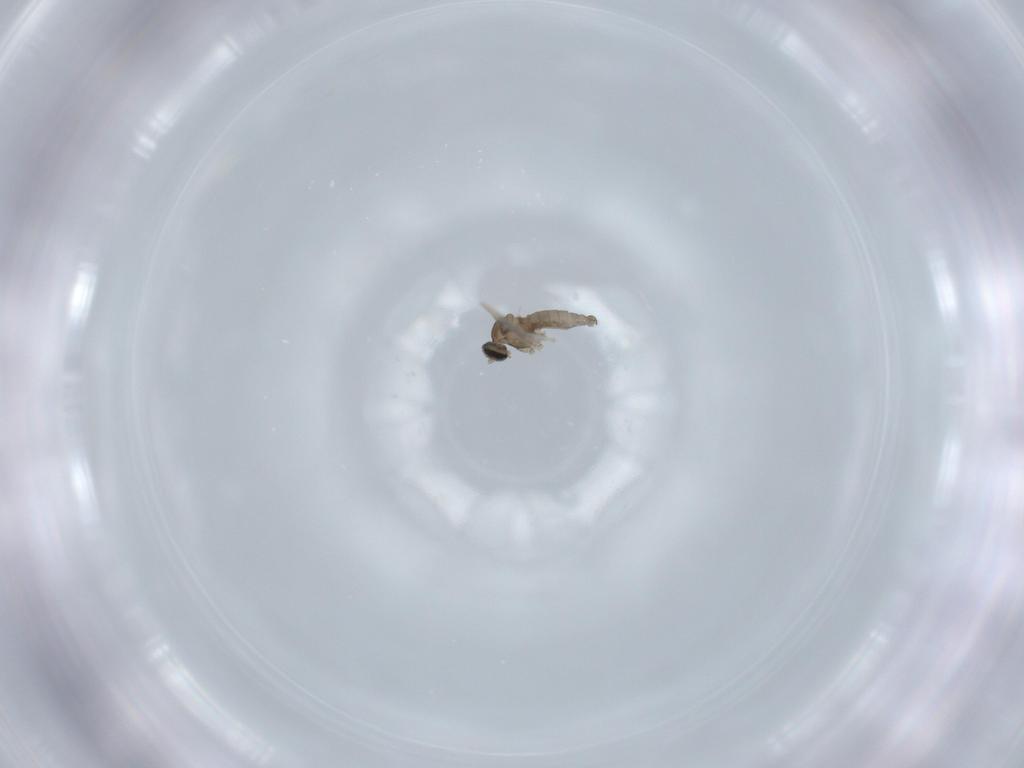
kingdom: Animalia
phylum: Arthropoda
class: Insecta
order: Diptera
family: Cecidomyiidae
